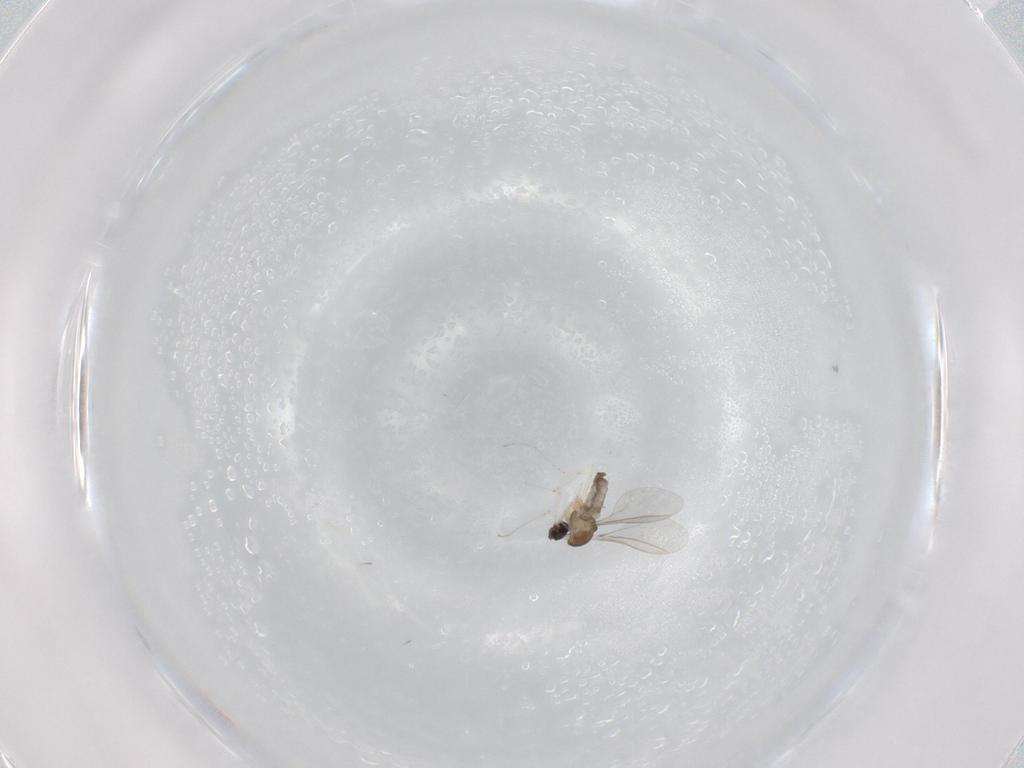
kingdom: Animalia
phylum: Arthropoda
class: Insecta
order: Diptera
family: Cecidomyiidae
